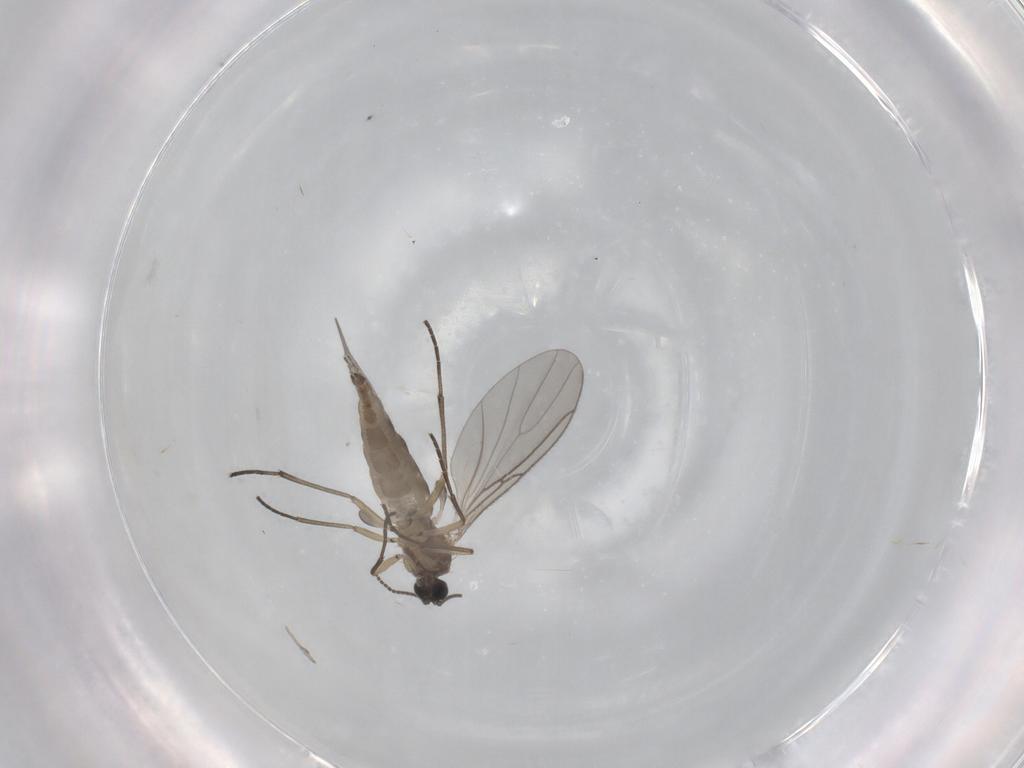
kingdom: Animalia
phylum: Arthropoda
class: Insecta
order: Diptera
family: Sciaridae
